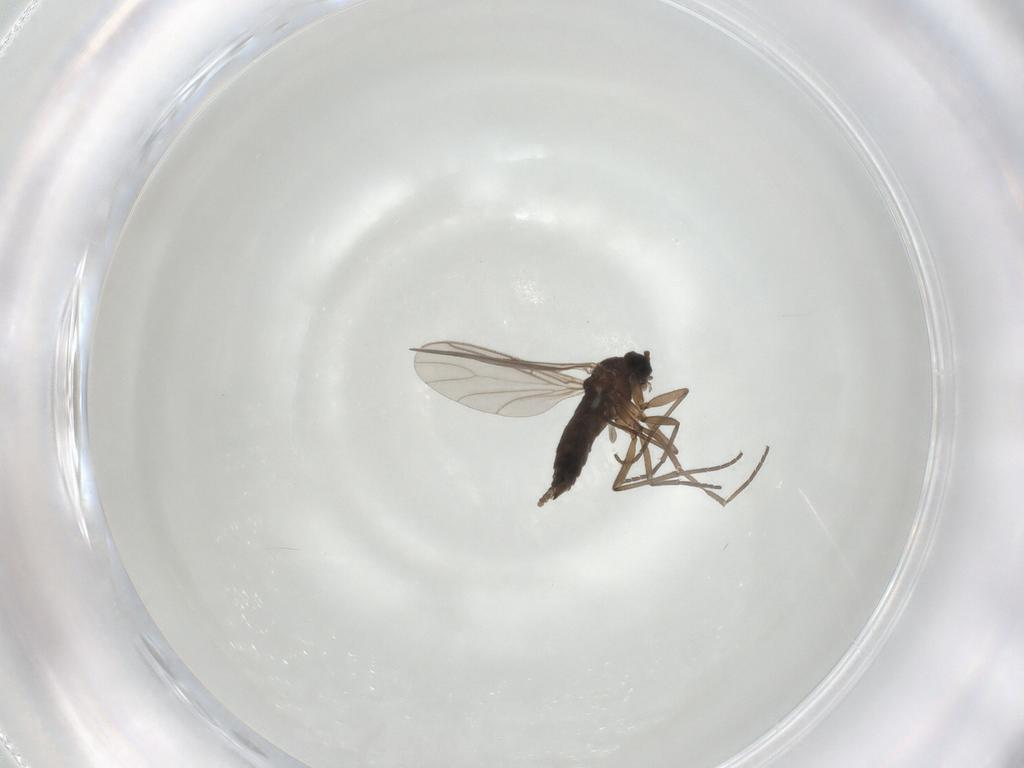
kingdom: Animalia
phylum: Arthropoda
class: Insecta
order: Diptera
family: Sciaridae
